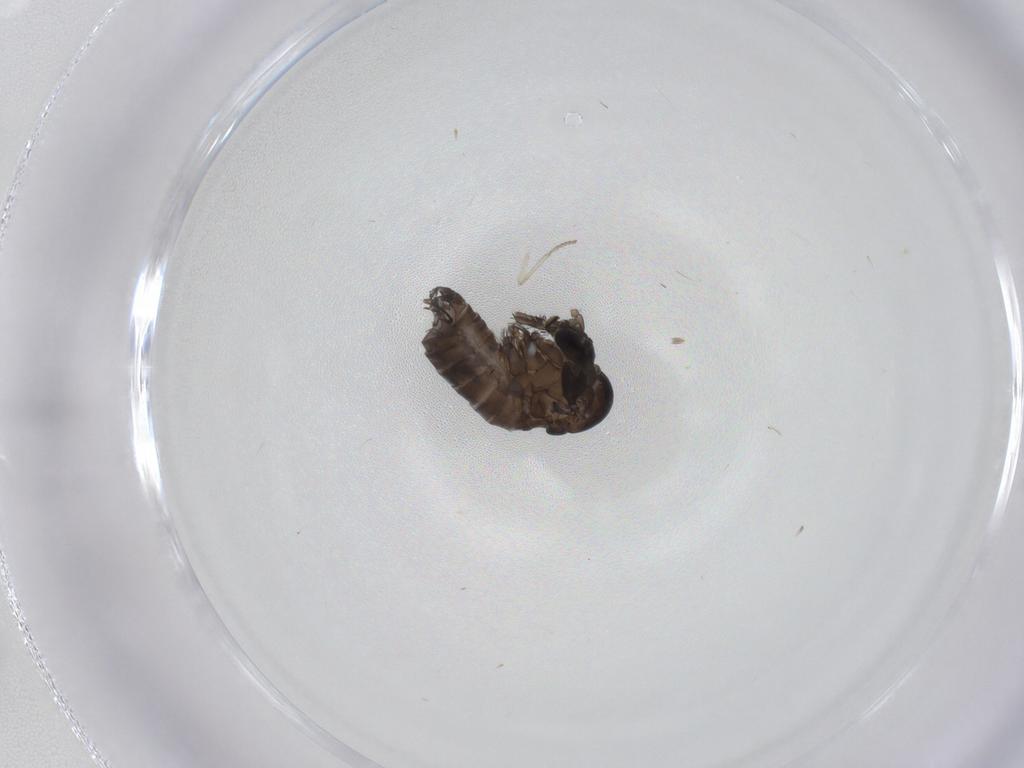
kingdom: Animalia
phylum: Arthropoda
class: Insecta
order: Diptera
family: Psychodidae
